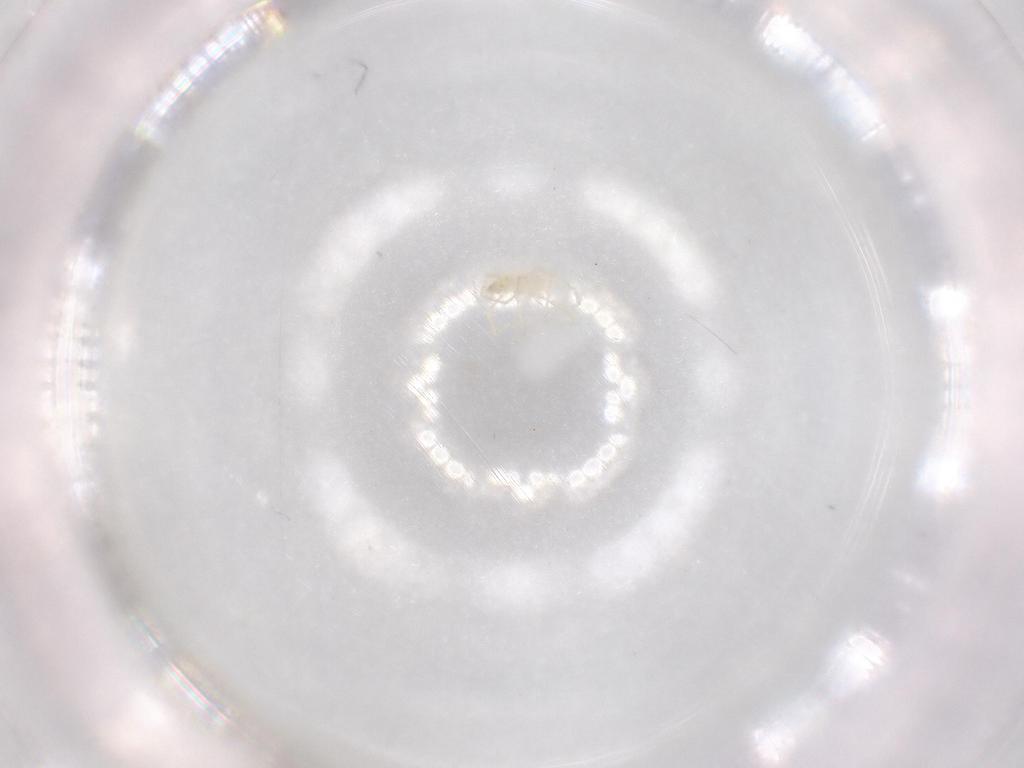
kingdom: Animalia
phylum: Arthropoda
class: Arachnida
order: Trombidiformes
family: Erythraeidae
